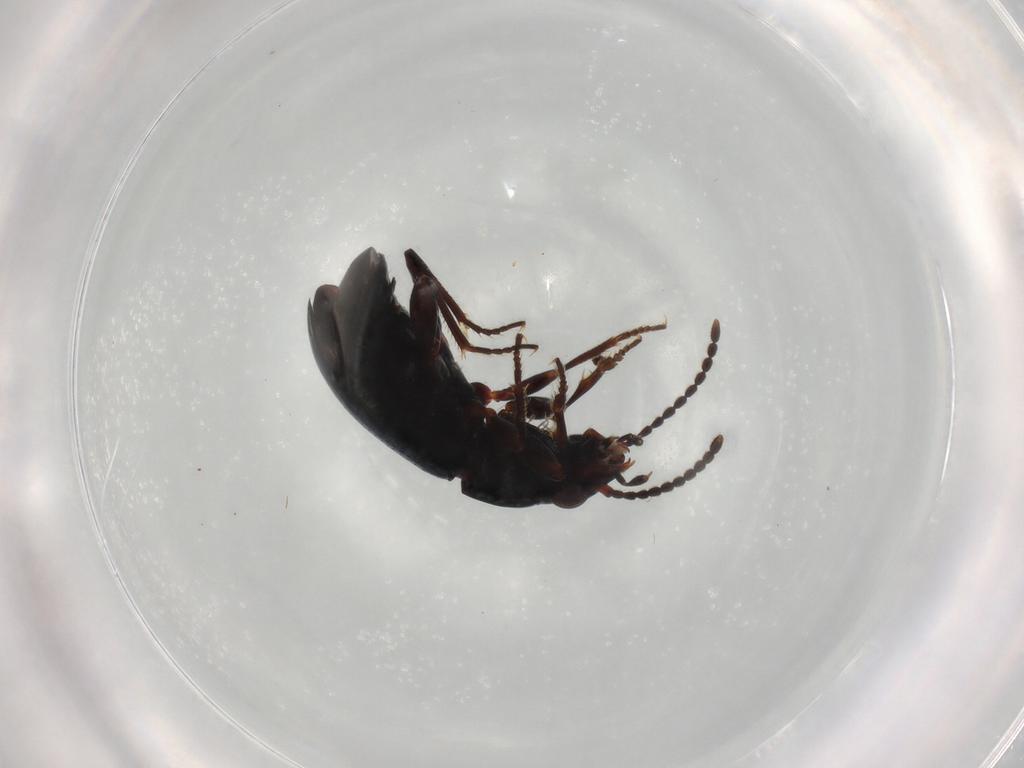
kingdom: Animalia
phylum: Arthropoda
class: Insecta
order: Coleoptera
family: Carabidae
